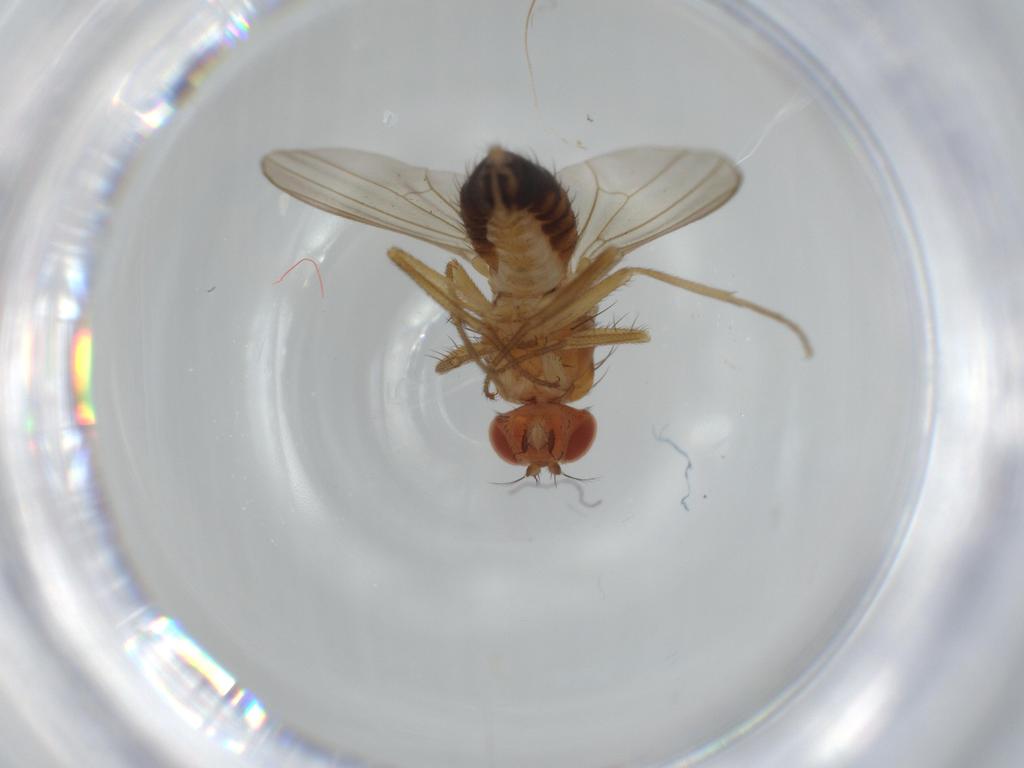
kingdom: Animalia
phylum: Arthropoda
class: Insecta
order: Diptera
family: Drosophilidae
